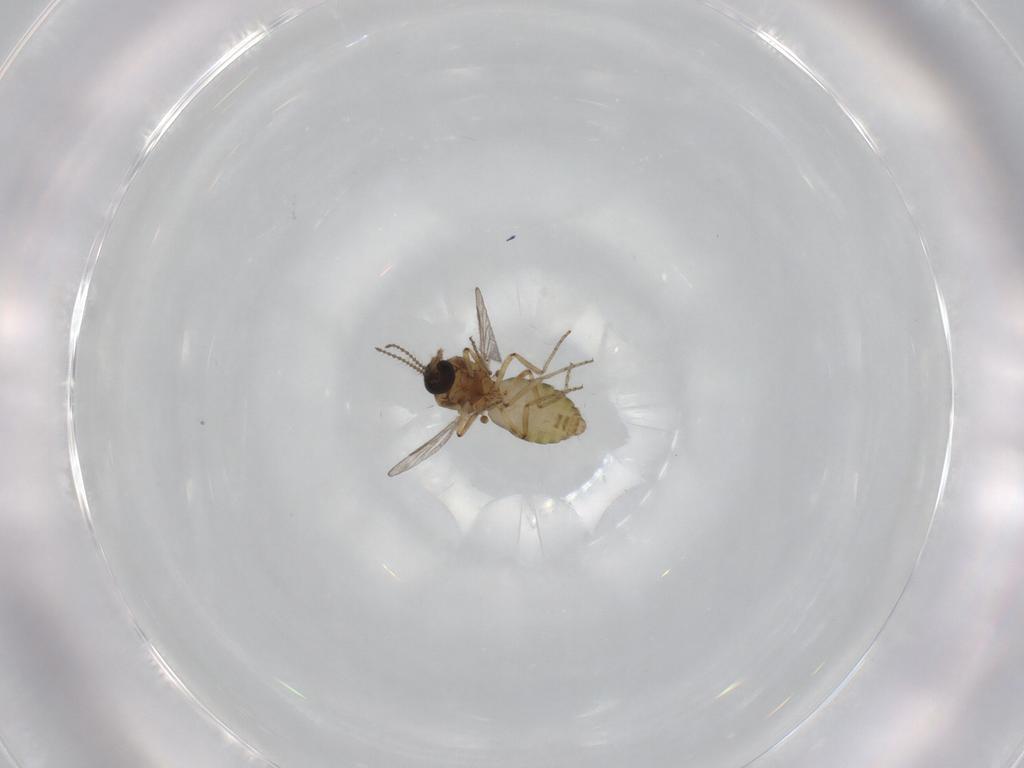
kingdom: Animalia
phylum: Arthropoda
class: Insecta
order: Diptera
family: Ceratopogonidae
